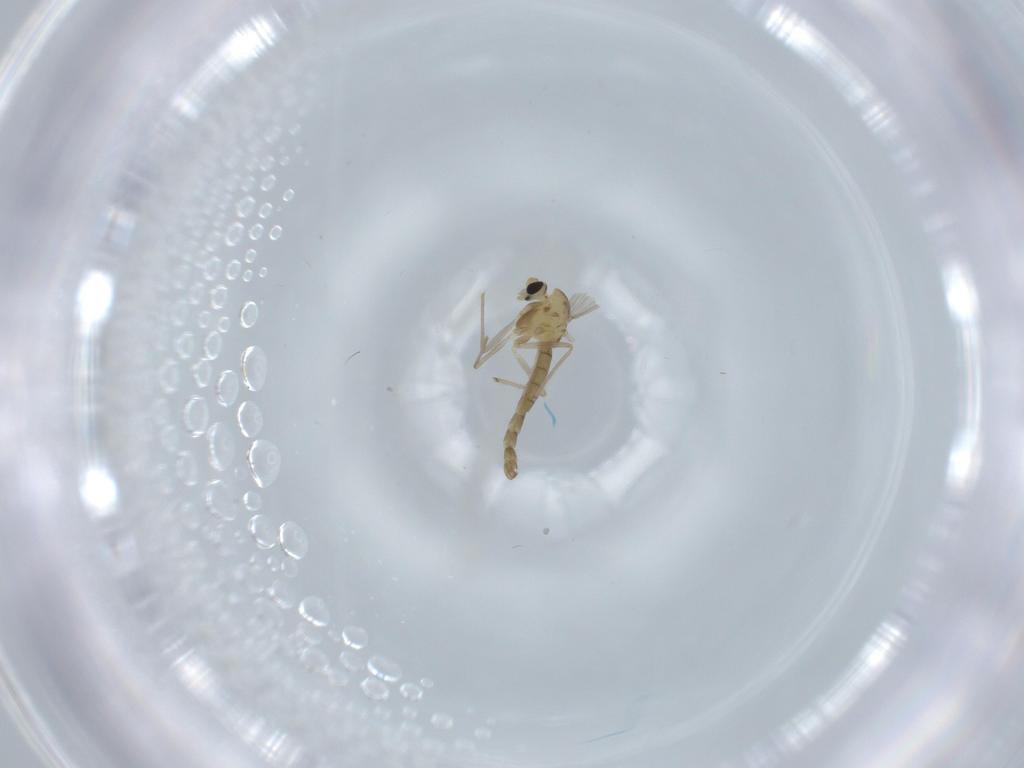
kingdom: Animalia
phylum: Arthropoda
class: Insecta
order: Diptera
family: Chironomidae
